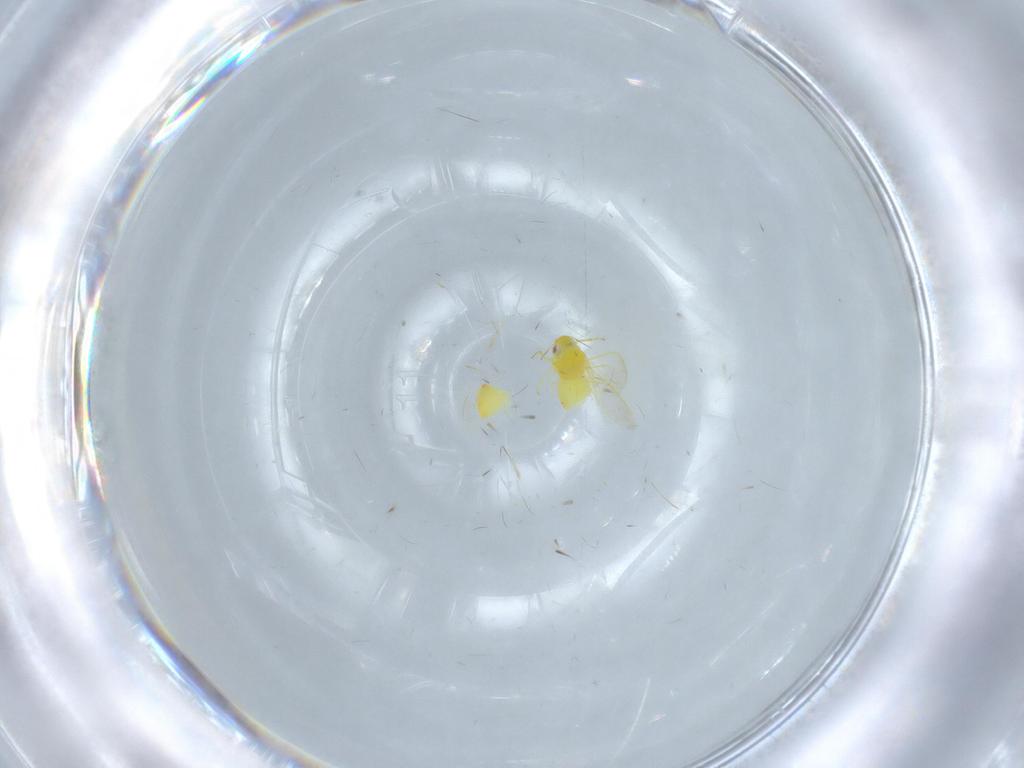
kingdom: Animalia
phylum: Arthropoda
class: Insecta
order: Hemiptera
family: Aleyrodidae
